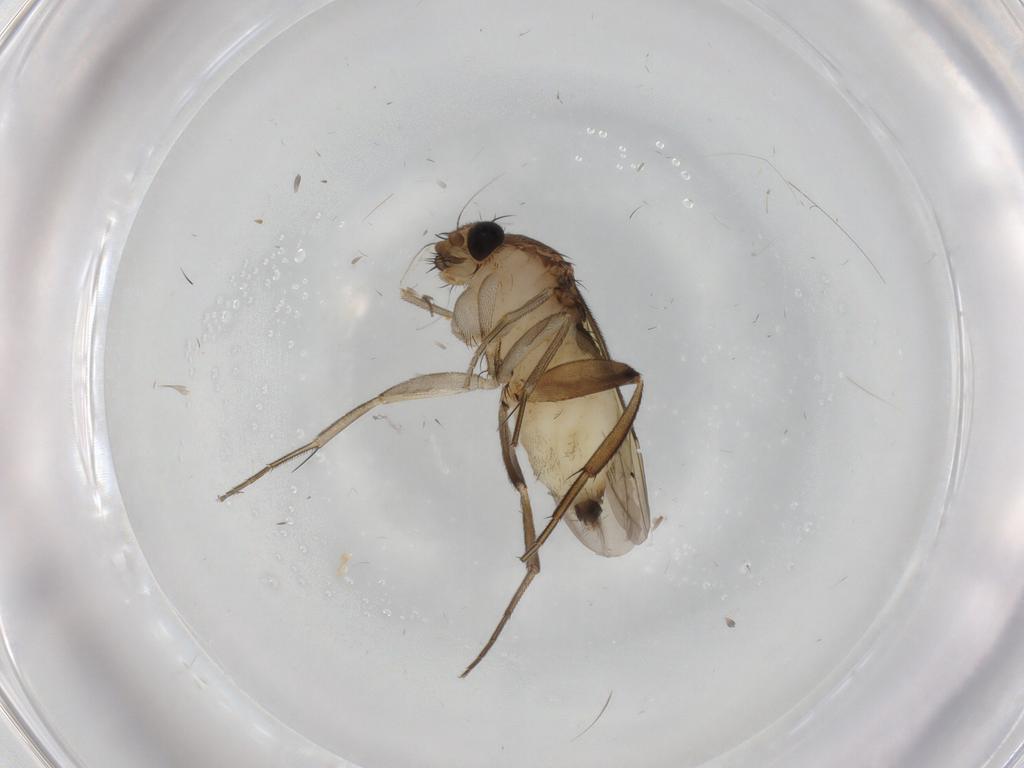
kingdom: Animalia
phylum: Arthropoda
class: Insecta
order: Diptera
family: Phoridae
